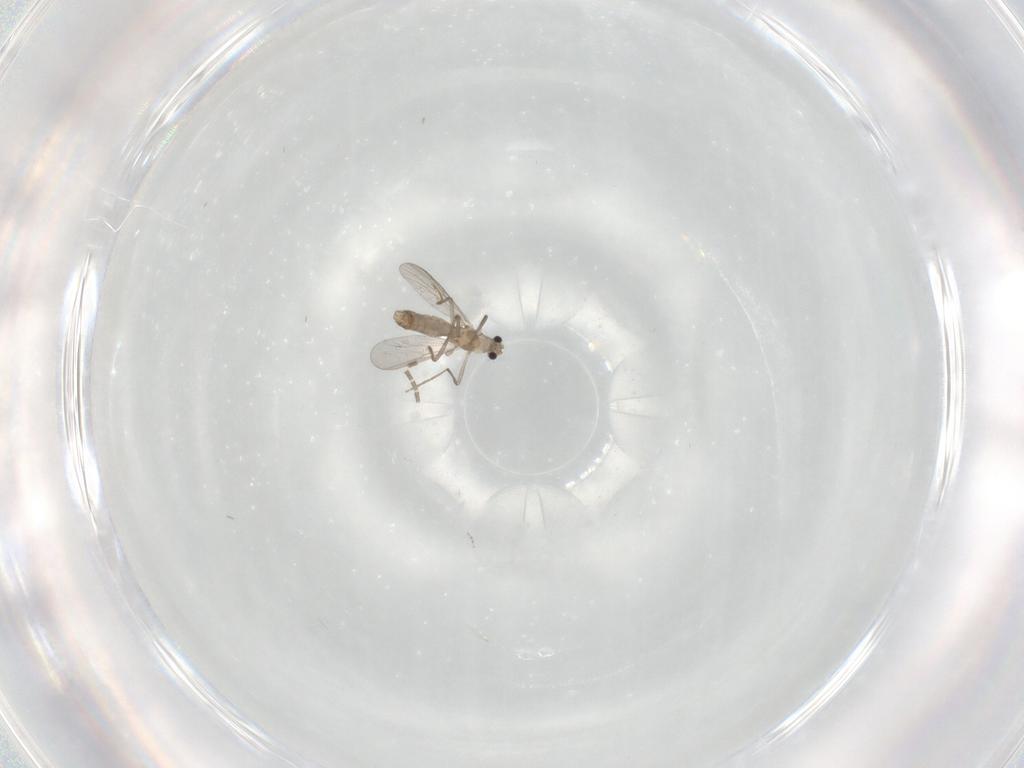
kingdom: Animalia
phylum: Arthropoda
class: Insecta
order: Diptera
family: Chironomidae
